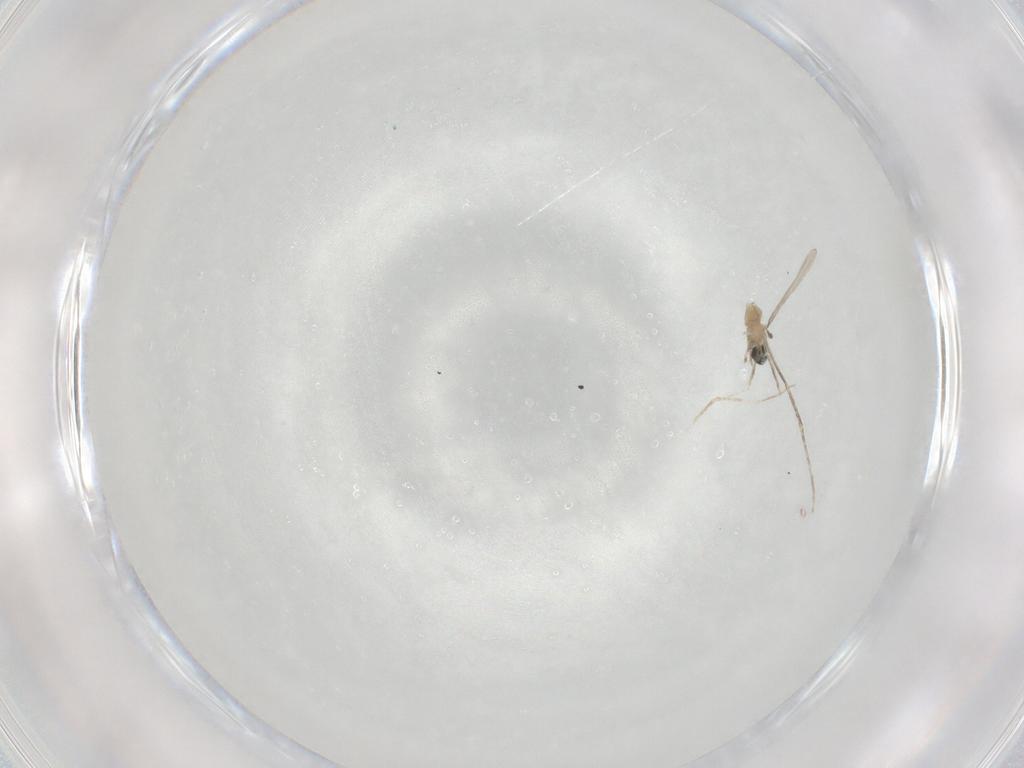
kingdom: Animalia
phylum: Arthropoda
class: Insecta
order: Diptera
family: Cecidomyiidae
